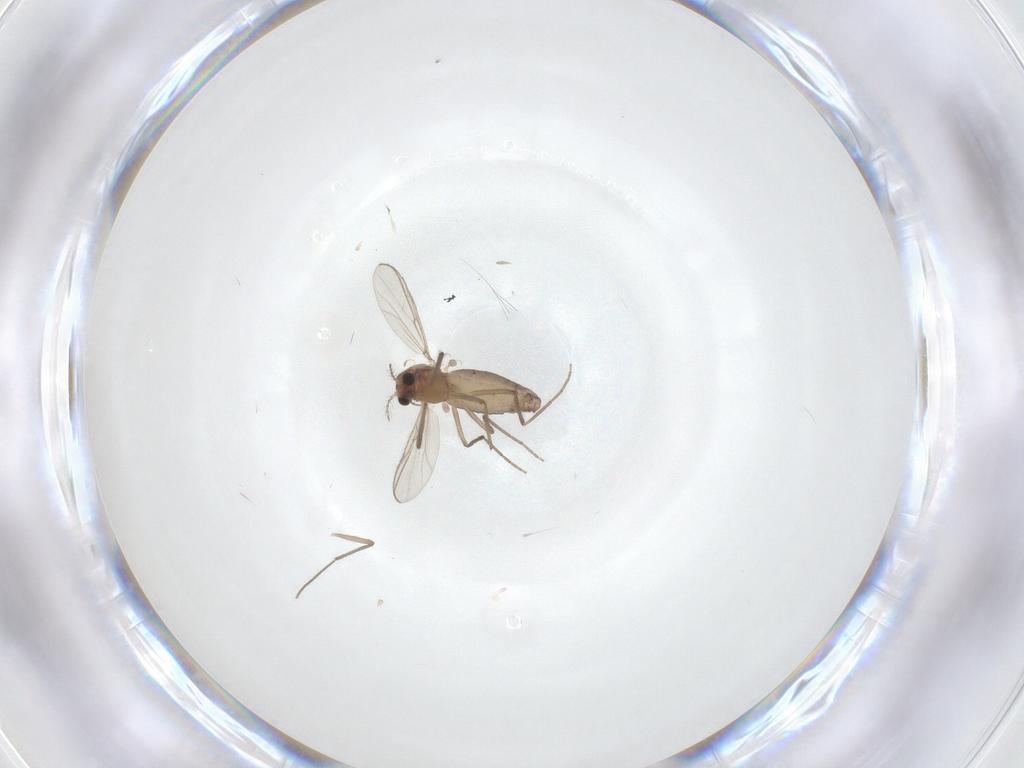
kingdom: Animalia
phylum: Arthropoda
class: Insecta
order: Diptera
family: Chironomidae
